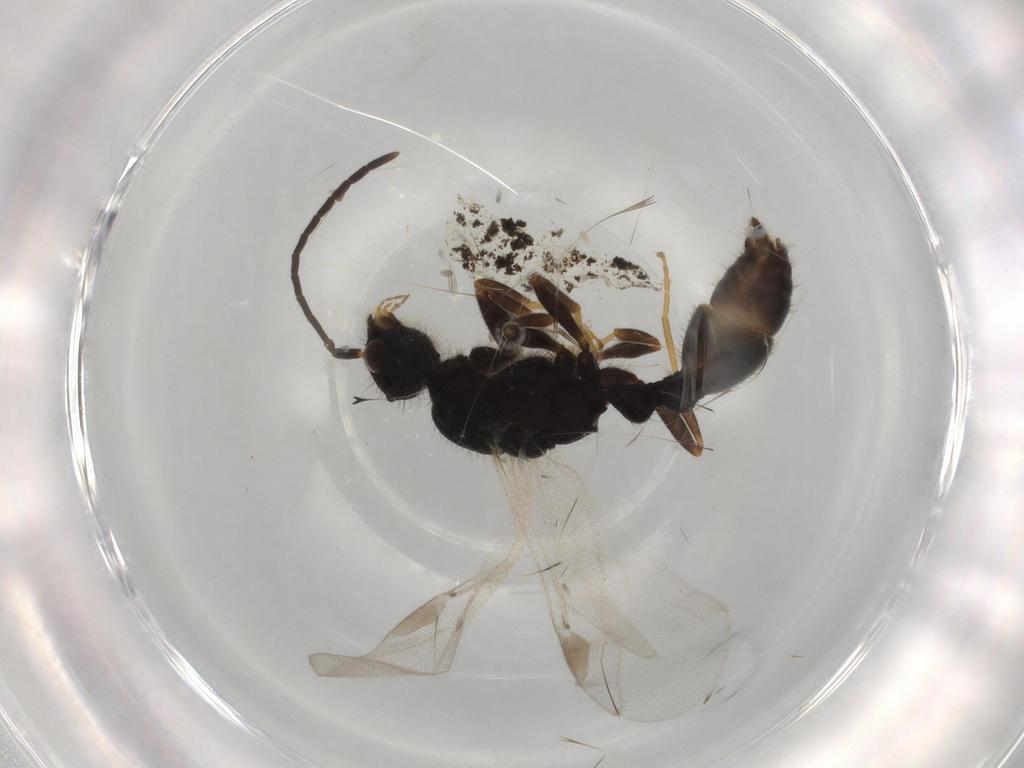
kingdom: Animalia
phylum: Arthropoda
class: Insecta
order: Hymenoptera
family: Formicidae
